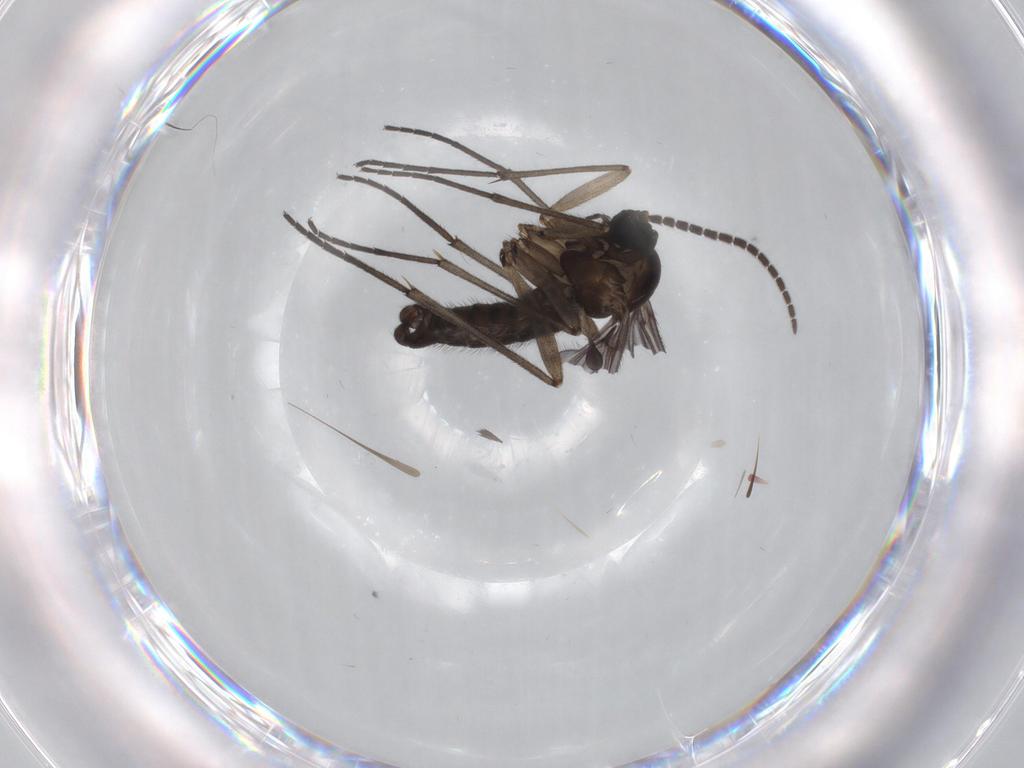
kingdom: Animalia
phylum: Arthropoda
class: Insecta
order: Diptera
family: Sciaridae
